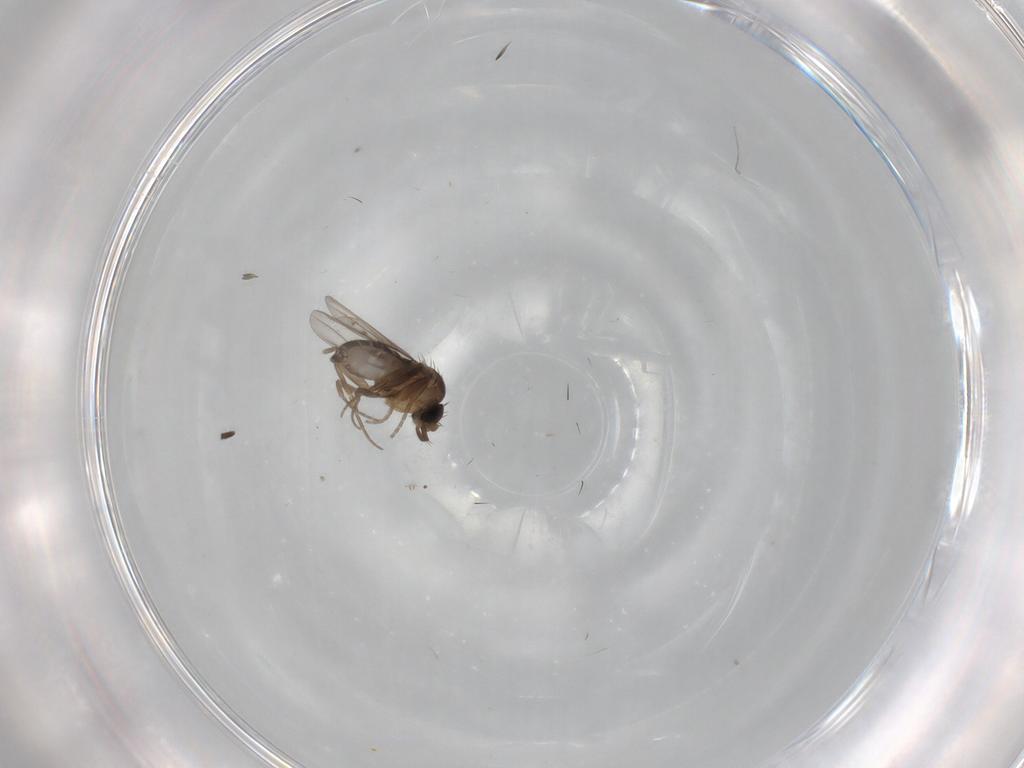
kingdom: Animalia
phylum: Arthropoda
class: Insecta
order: Diptera
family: Phoridae
